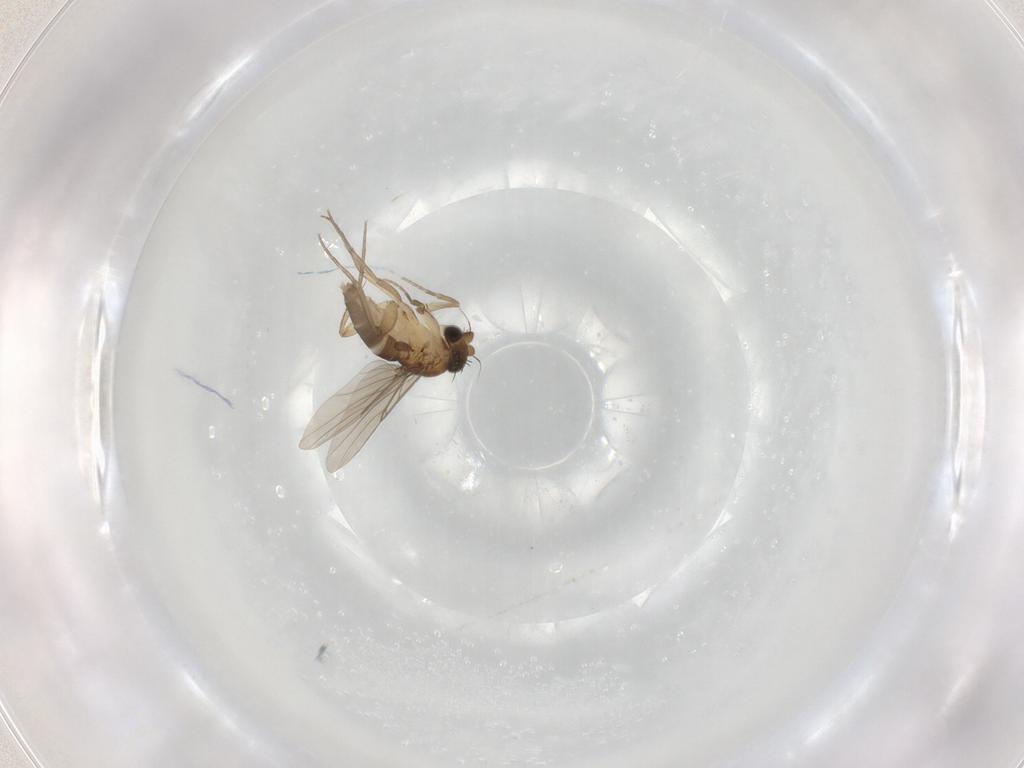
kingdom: Animalia
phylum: Arthropoda
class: Insecta
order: Diptera
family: Phoridae
